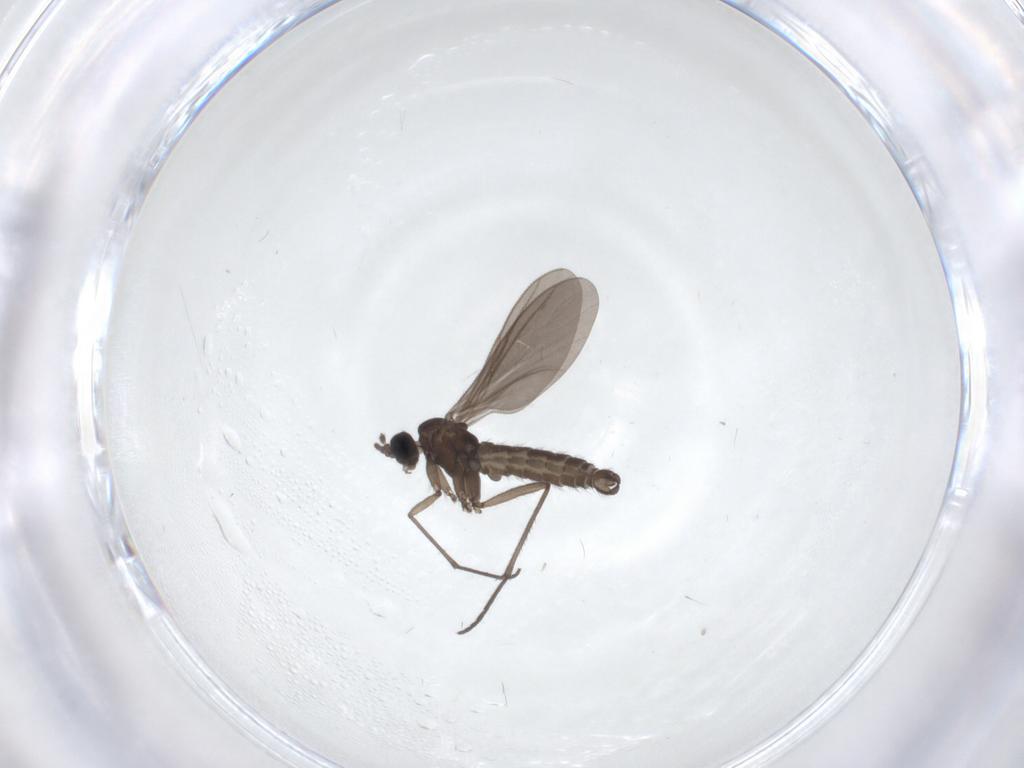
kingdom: Animalia
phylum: Arthropoda
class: Insecta
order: Diptera
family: Sciaridae
